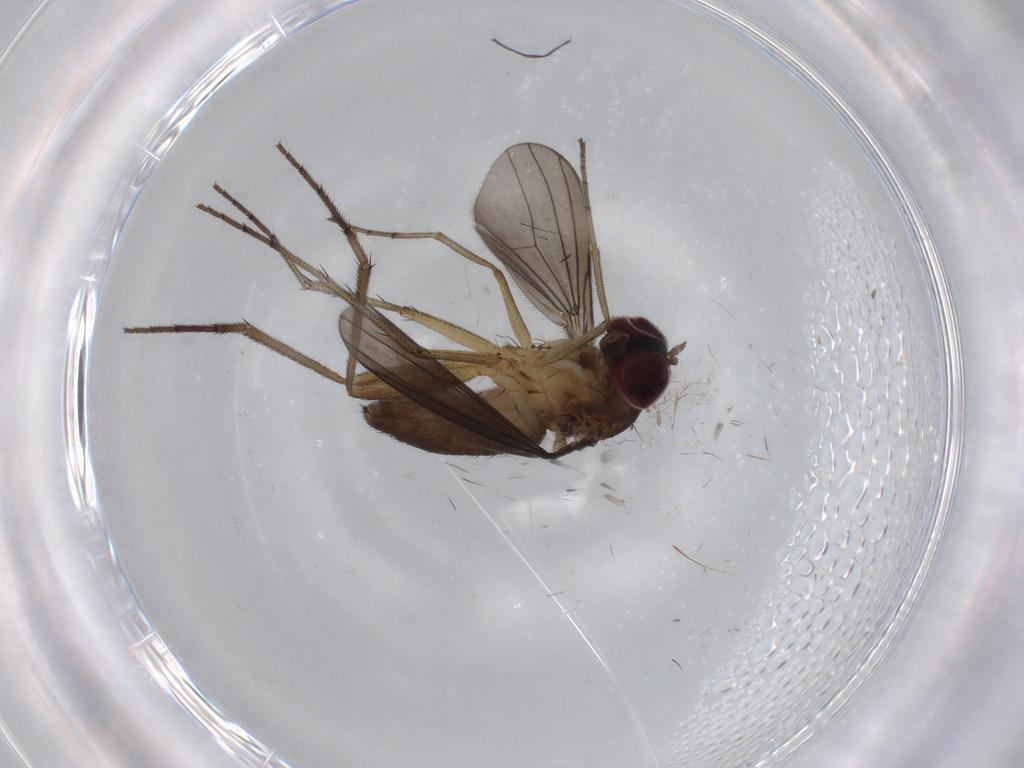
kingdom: Animalia
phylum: Arthropoda
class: Insecta
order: Diptera
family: Dolichopodidae
